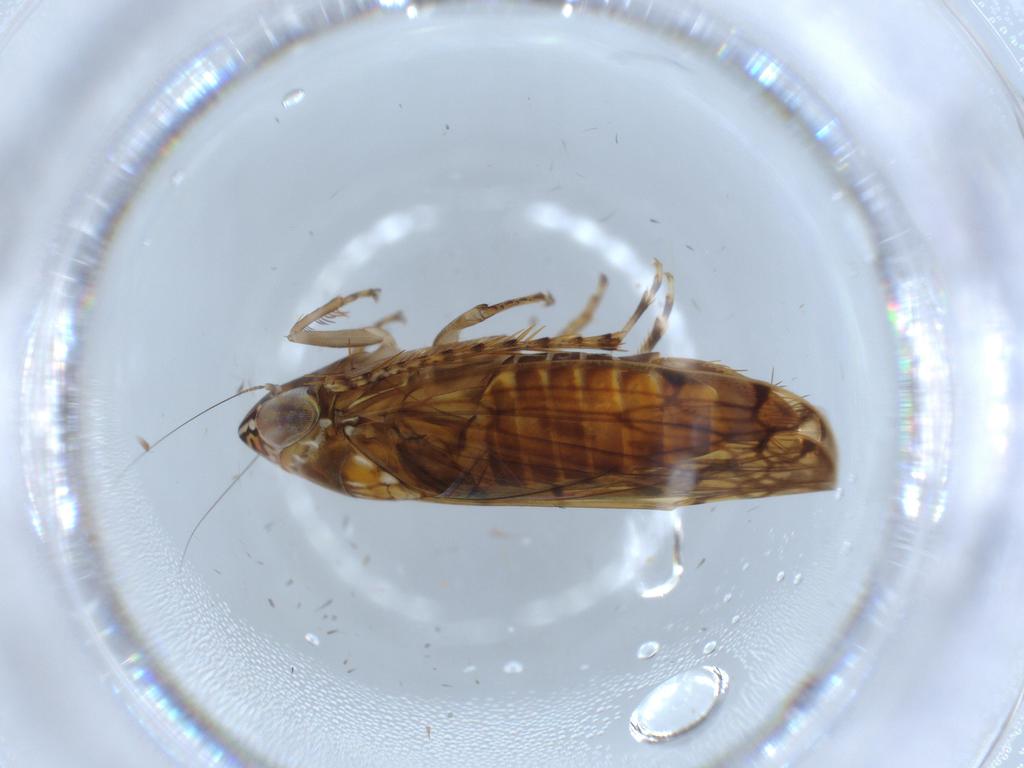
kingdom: Animalia
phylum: Arthropoda
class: Insecta
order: Hemiptera
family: Cicadellidae
